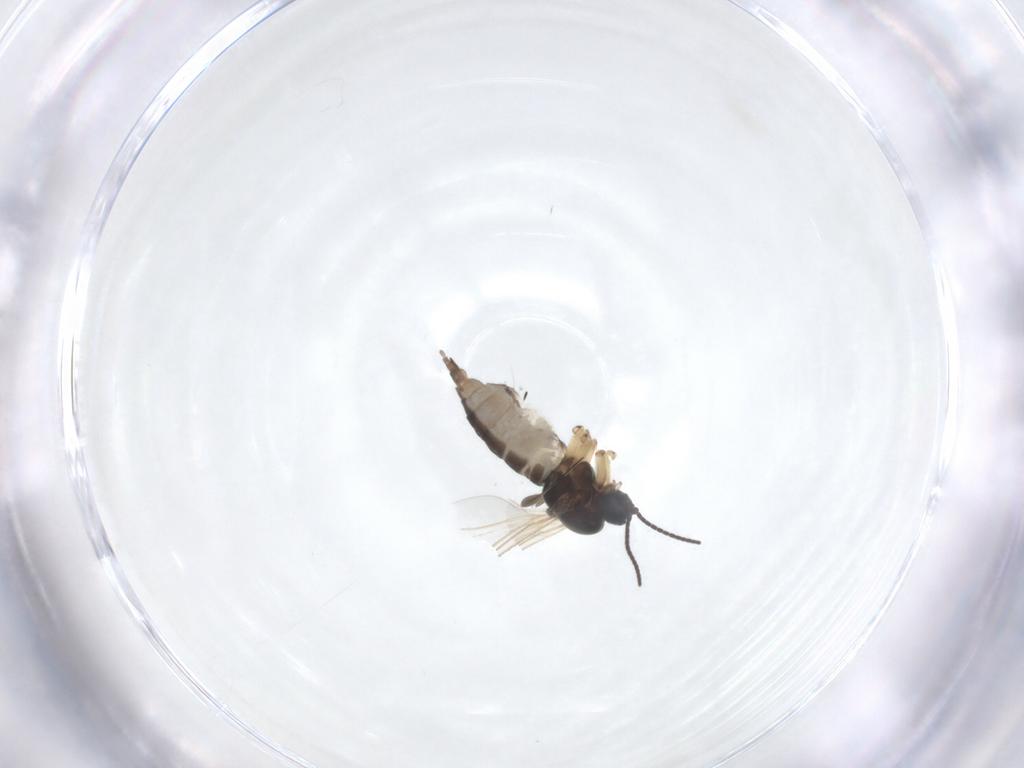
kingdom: Animalia
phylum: Arthropoda
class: Insecta
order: Diptera
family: Sciaridae
